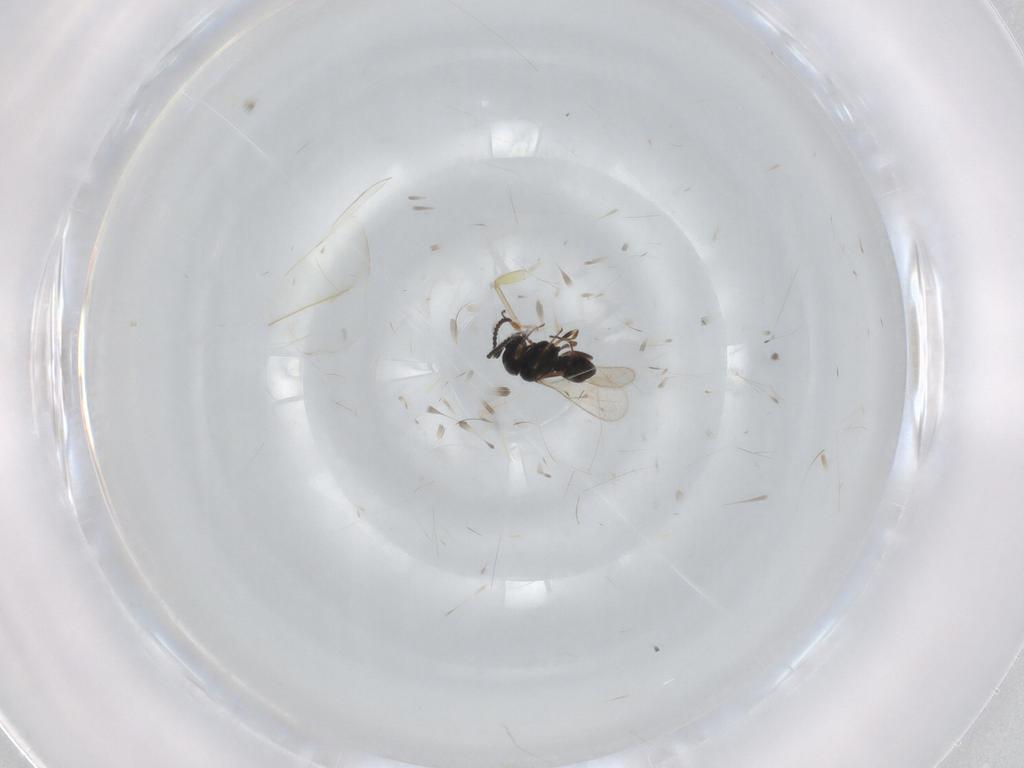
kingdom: Animalia
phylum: Arthropoda
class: Insecta
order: Hymenoptera
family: Scelionidae
